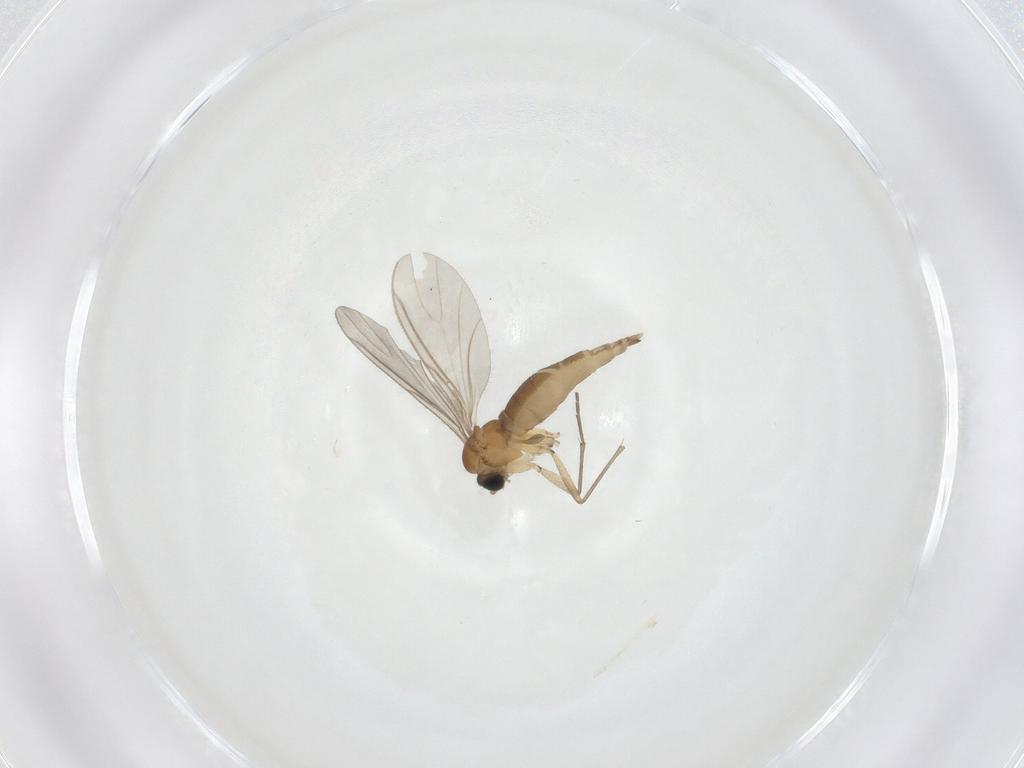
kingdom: Animalia
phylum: Arthropoda
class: Insecta
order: Diptera
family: Sciaridae
